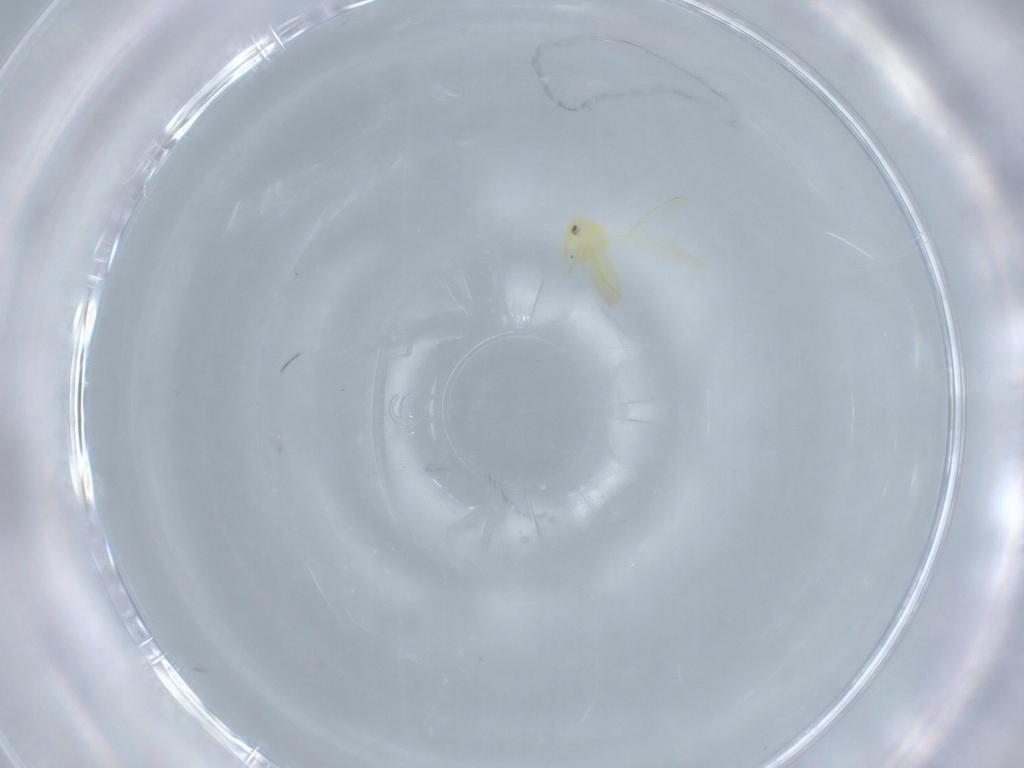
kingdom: Animalia
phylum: Arthropoda
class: Insecta
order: Hemiptera
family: Aleyrodidae
